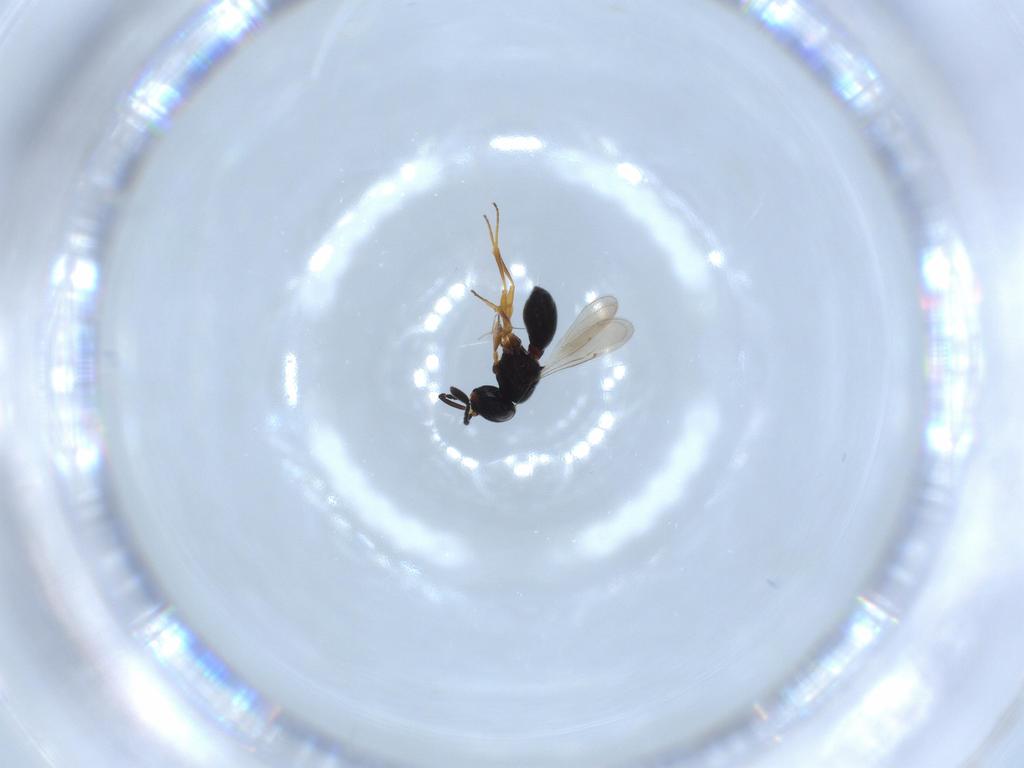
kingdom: Animalia
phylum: Arthropoda
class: Insecta
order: Hymenoptera
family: Scelionidae
